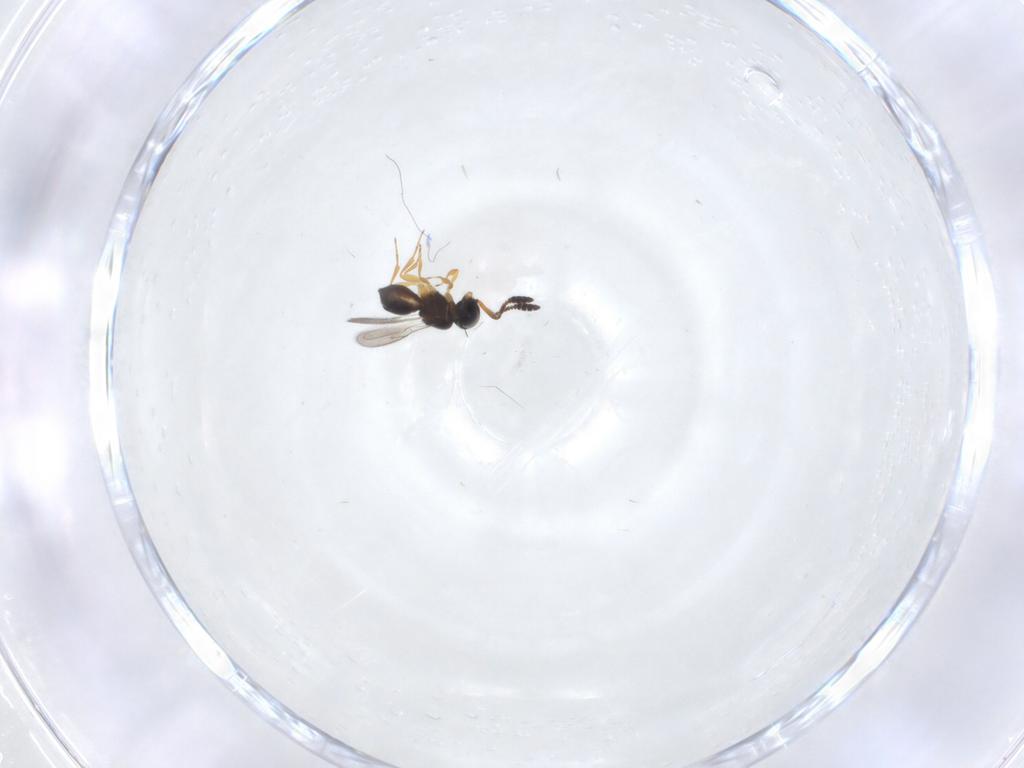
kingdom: Animalia
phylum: Arthropoda
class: Insecta
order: Hymenoptera
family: Scelionidae
